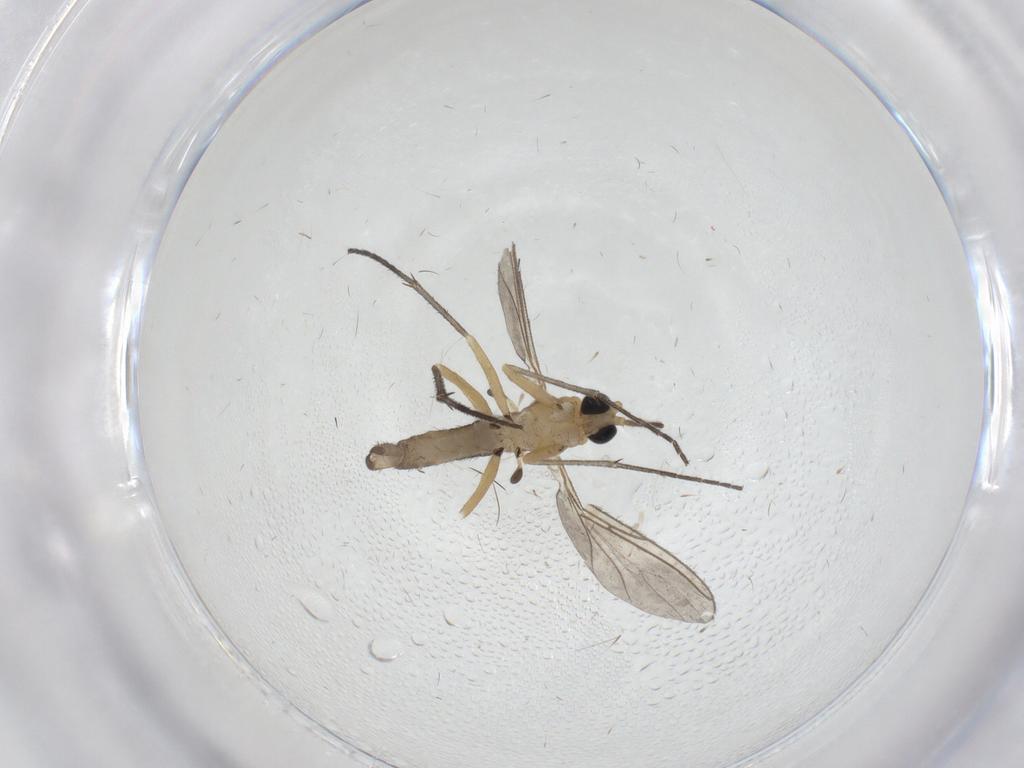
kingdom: Animalia
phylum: Arthropoda
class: Insecta
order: Diptera
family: Sciaridae
